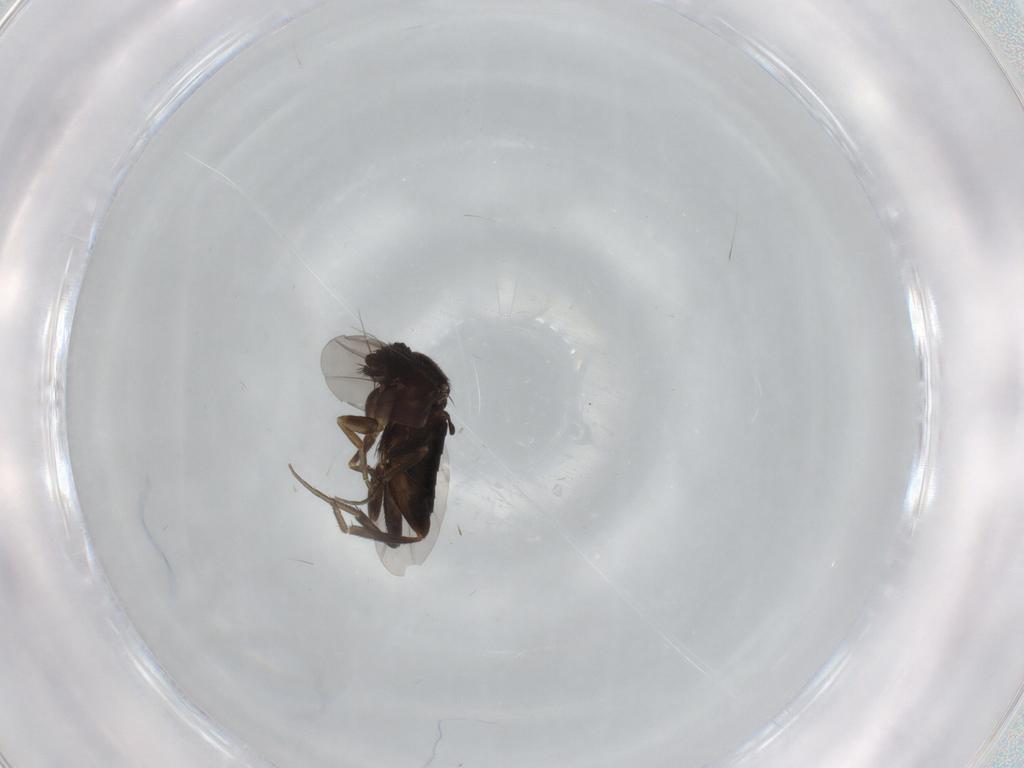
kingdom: Animalia
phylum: Arthropoda
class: Insecta
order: Diptera
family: Phoridae
